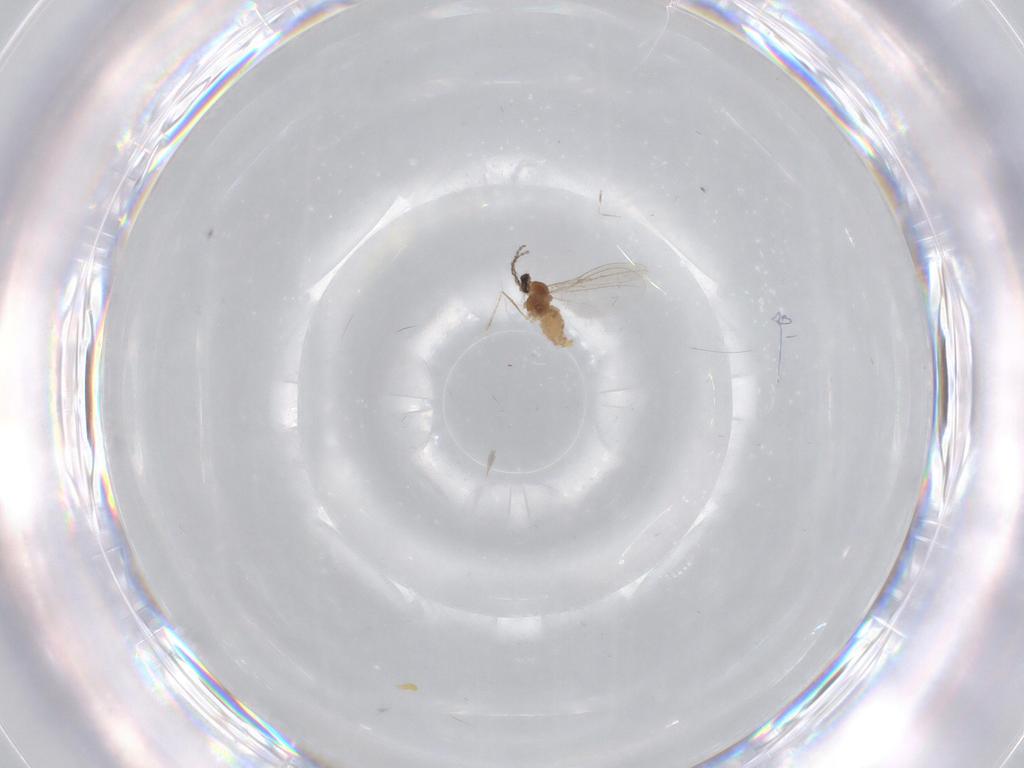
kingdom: Animalia
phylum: Arthropoda
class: Insecta
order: Diptera
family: Cecidomyiidae
